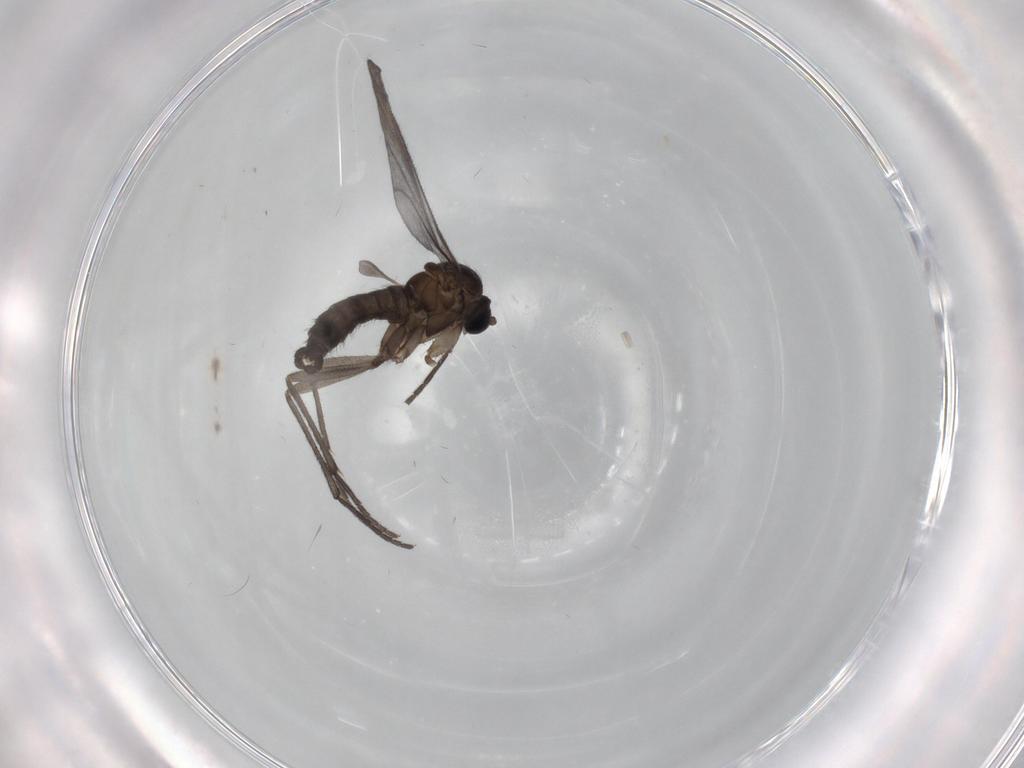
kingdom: Animalia
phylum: Arthropoda
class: Insecta
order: Diptera
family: Sciaridae
